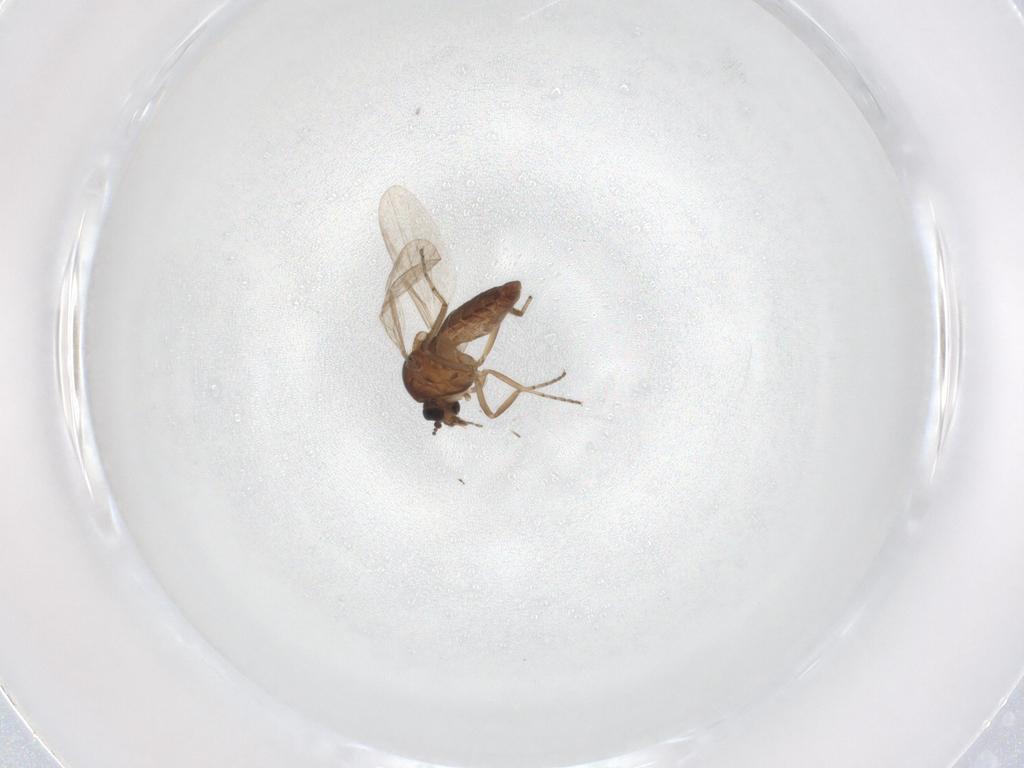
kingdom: Animalia
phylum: Arthropoda
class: Insecta
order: Diptera
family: Ceratopogonidae
